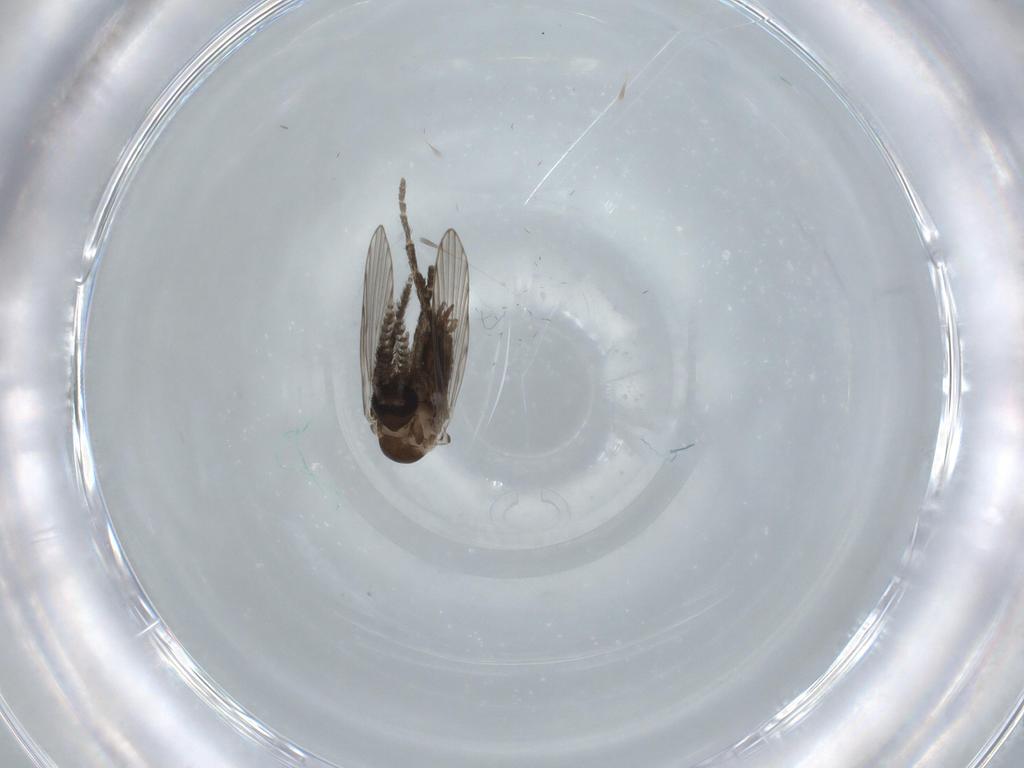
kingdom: Animalia
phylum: Arthropoda
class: Insecta
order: Diptera
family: Psychodidae
